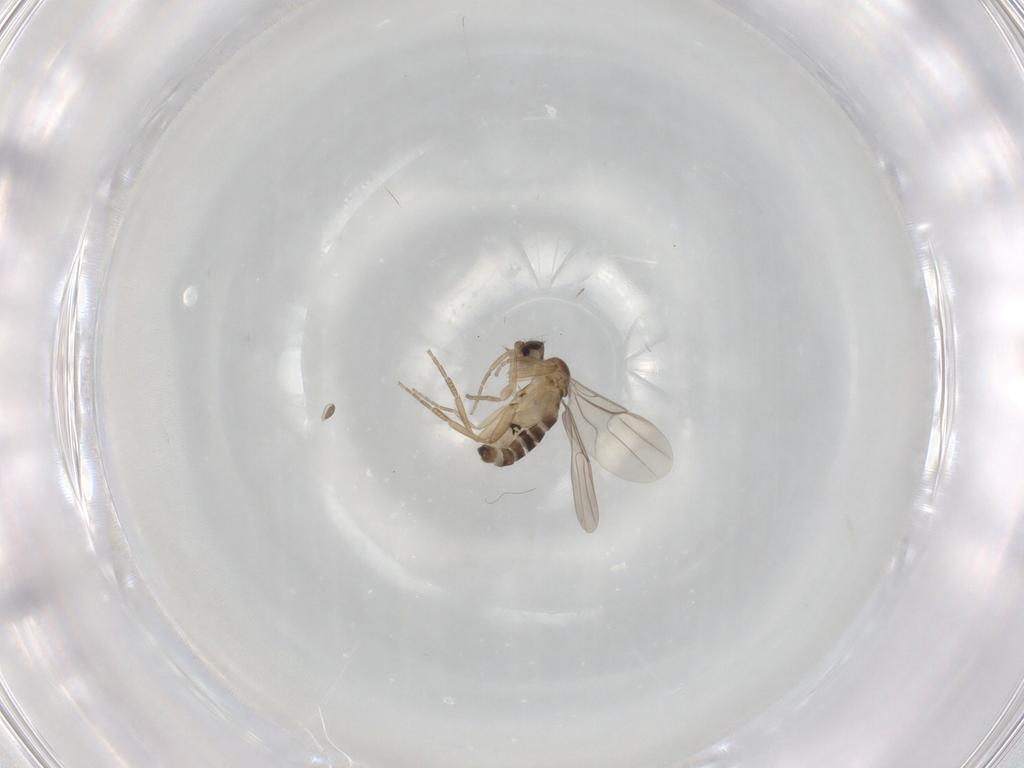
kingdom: Animalia
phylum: Arthropoda
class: Insecta
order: Diptera
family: Phoridae
